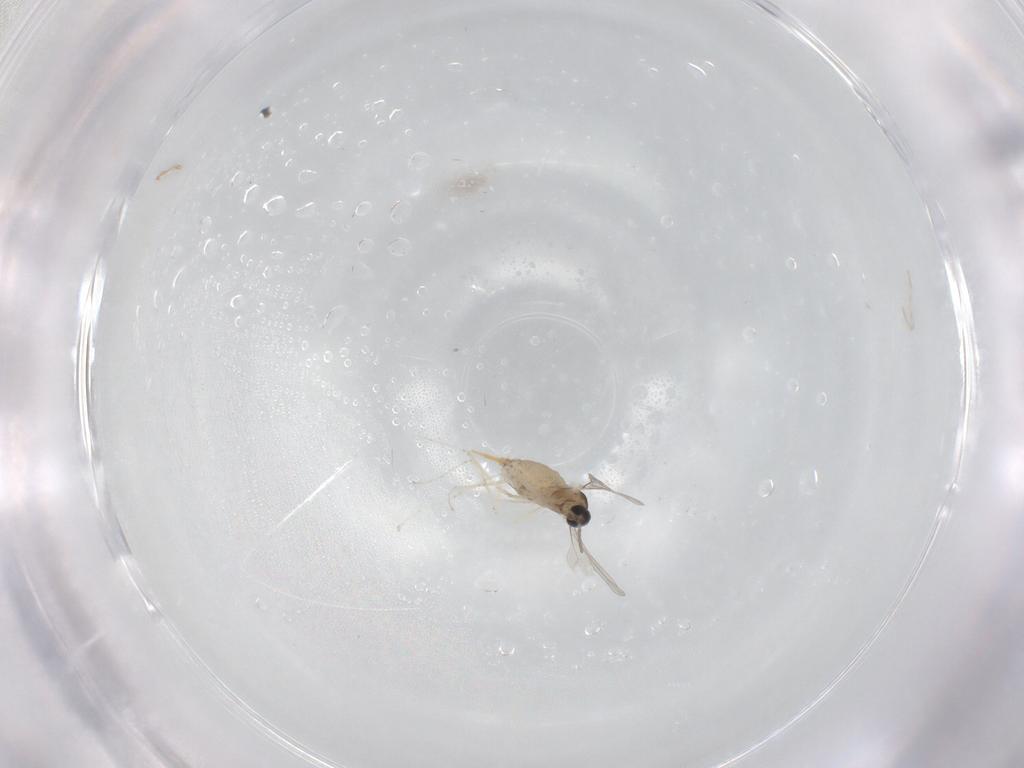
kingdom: Animalia
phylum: Arthropoda
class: Insecta
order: Diptera
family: Cecidomyiidae
